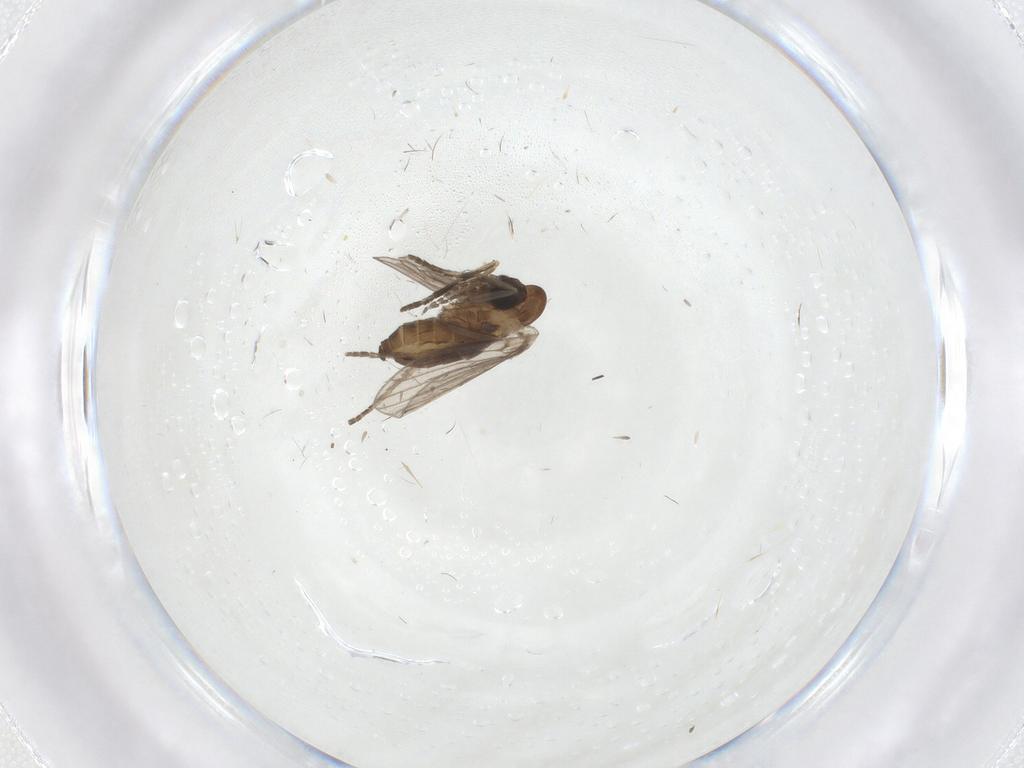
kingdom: Animalia
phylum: Arthropoda
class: Insecta
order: Diptera
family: Psychodidae
